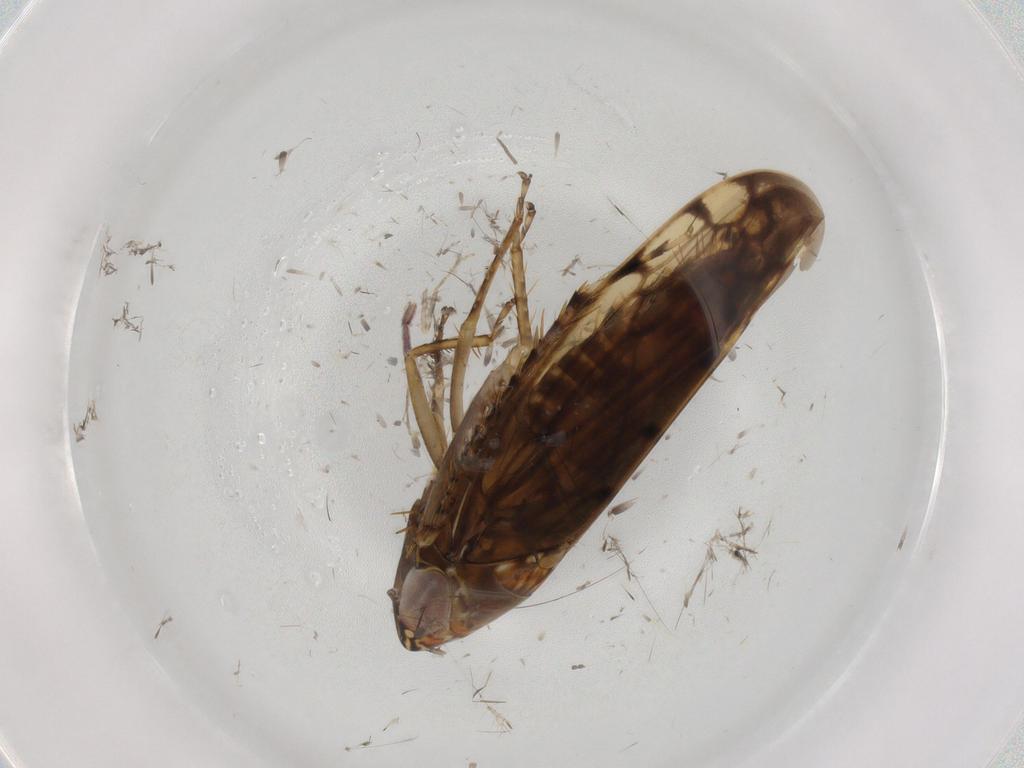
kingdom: Animalia
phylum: Arthropoda
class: Insecta
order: Hemiptera
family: Cicadellidae
